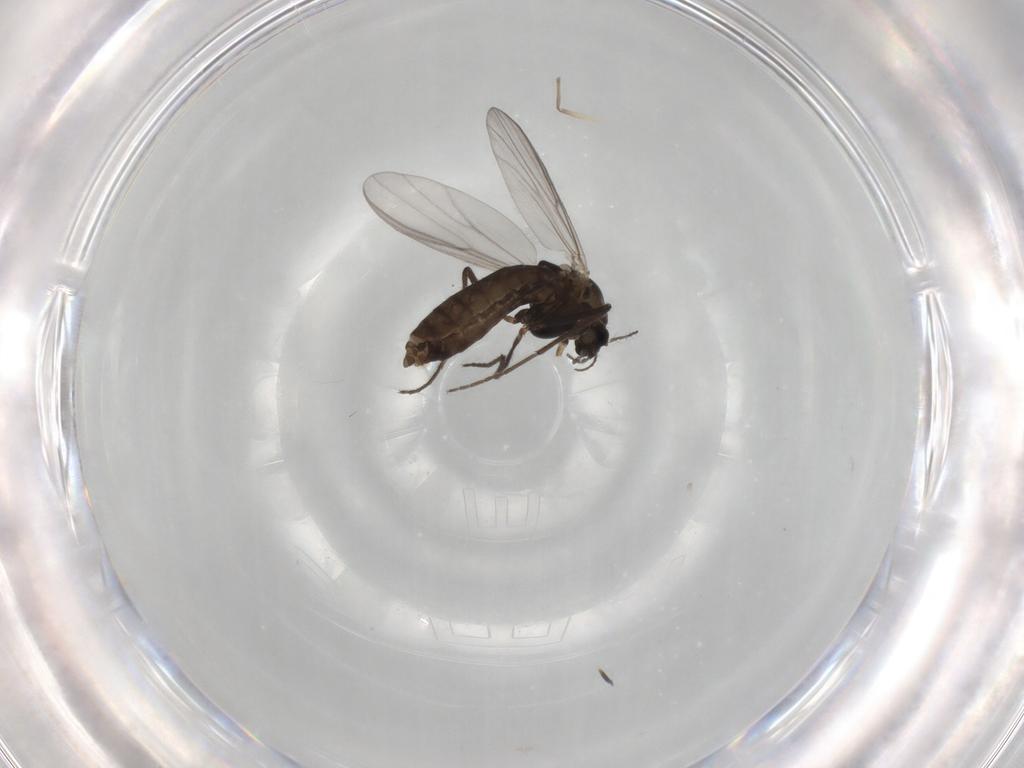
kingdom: Animalia
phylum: Arthropoda
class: Insecta
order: Diptera
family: Chironomidae
